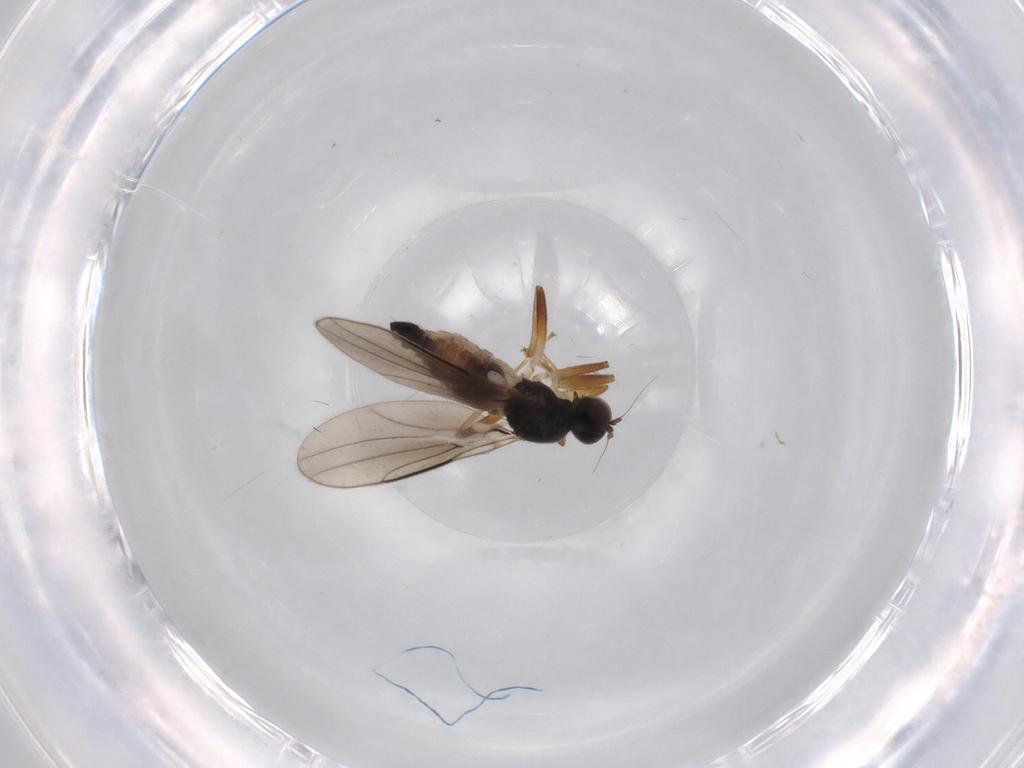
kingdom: Animalia
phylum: Arthropoda
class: Insecta
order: Diptera
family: Hybotidae
